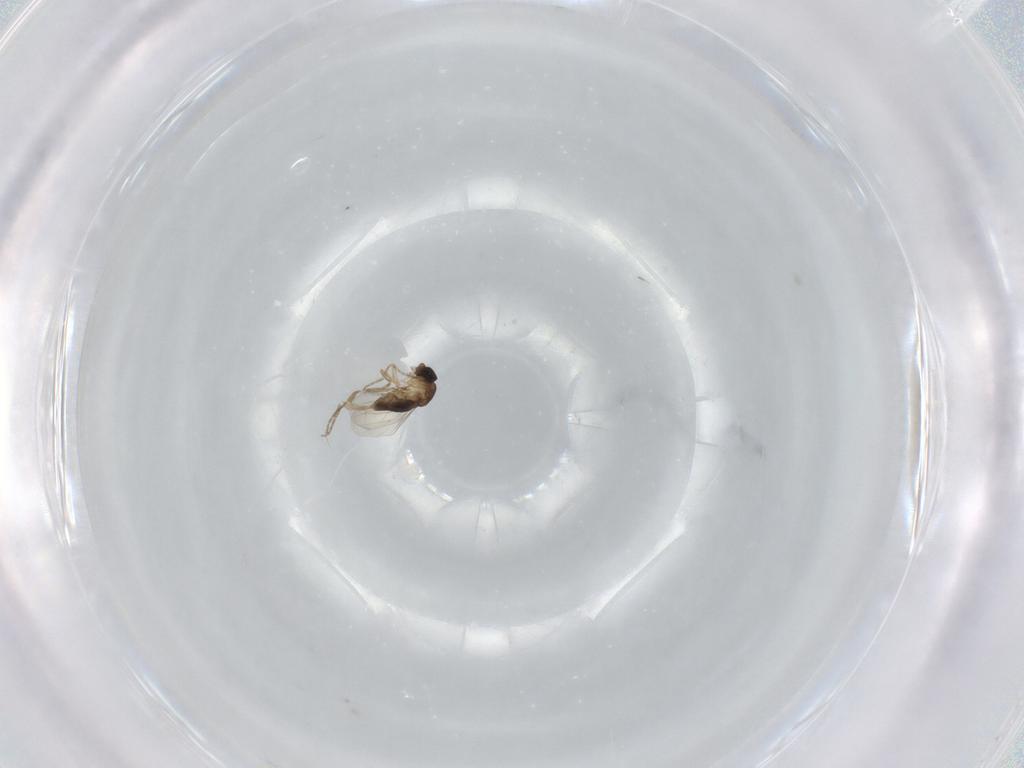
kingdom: Animalia
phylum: Arthropoda
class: Insecta
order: Diptera
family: Phoridae
